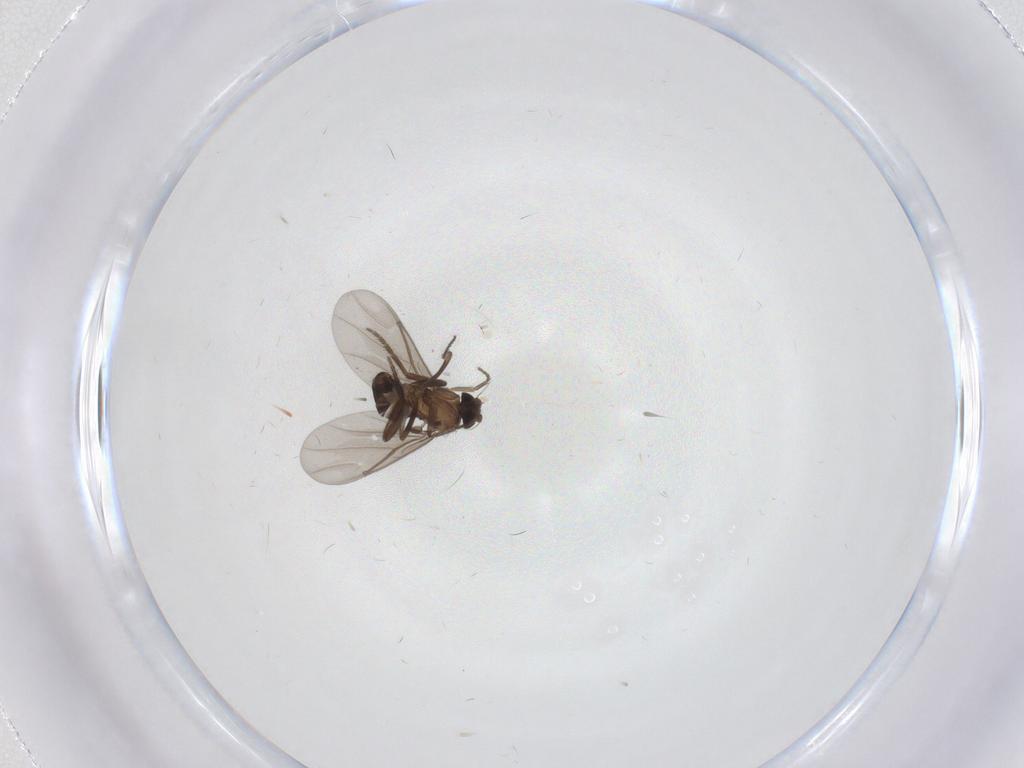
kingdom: Animalia
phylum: Arthropoda
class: Insecta
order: Diptera
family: Phoridae
